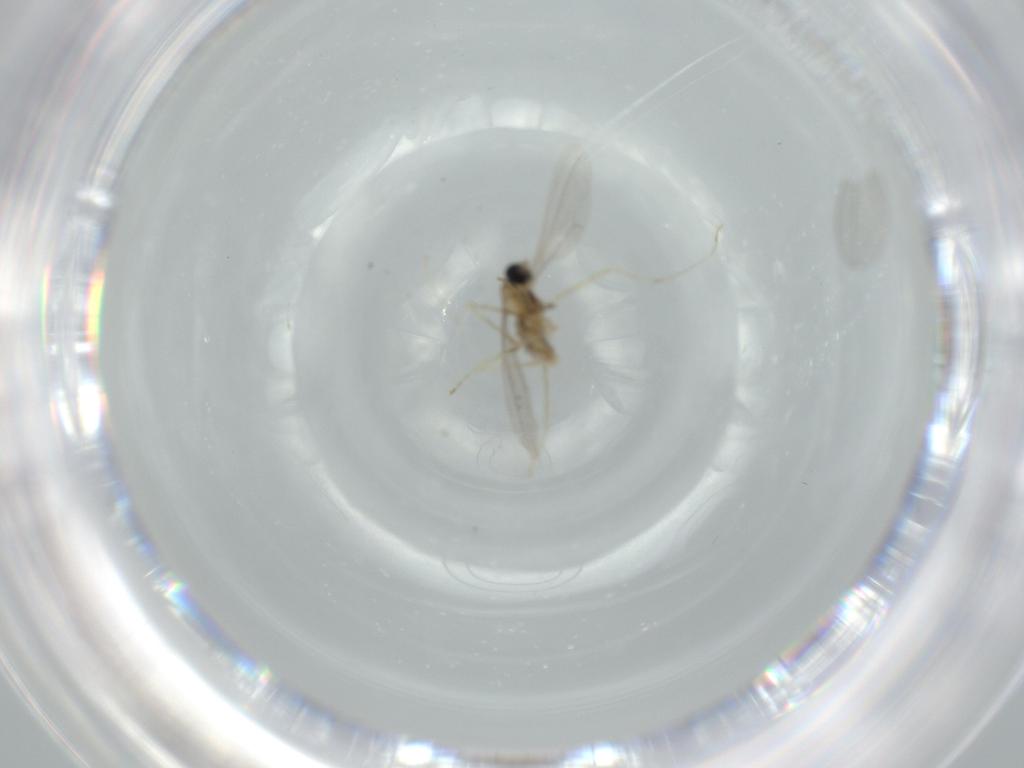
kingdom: Animalia
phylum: Arthropoda
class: Insecta
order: Diptera
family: Cecidomyiidae
